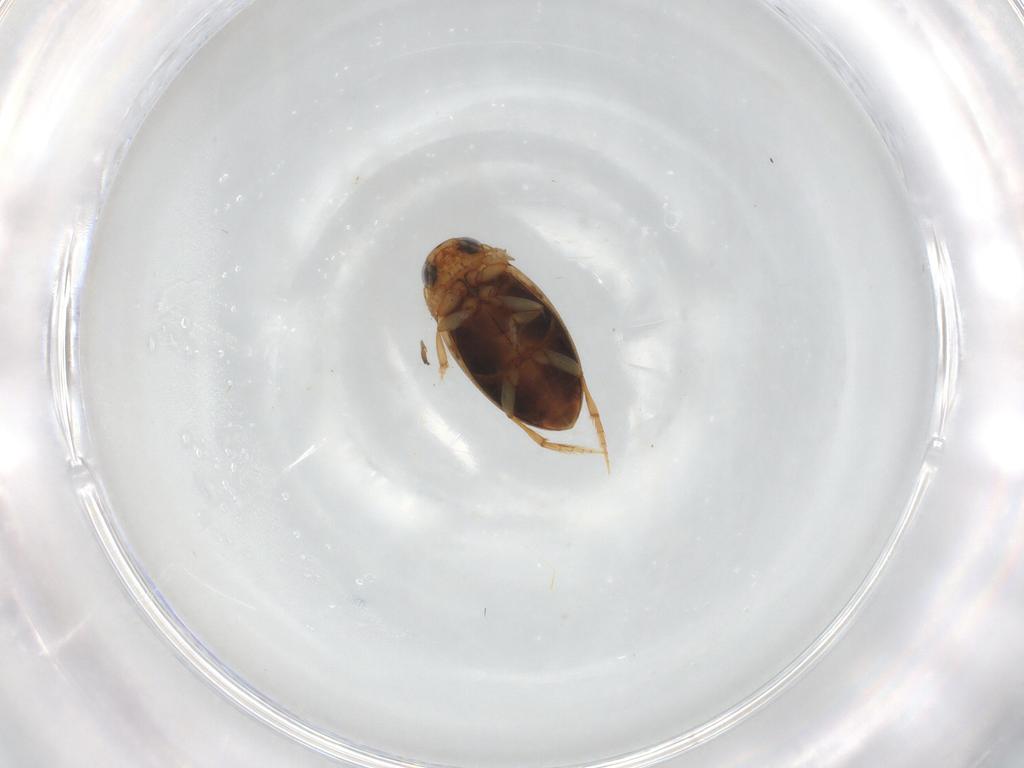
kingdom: Animalia
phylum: Arthropoda
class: Insecta
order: Coleoptera
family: Dytiscidae
